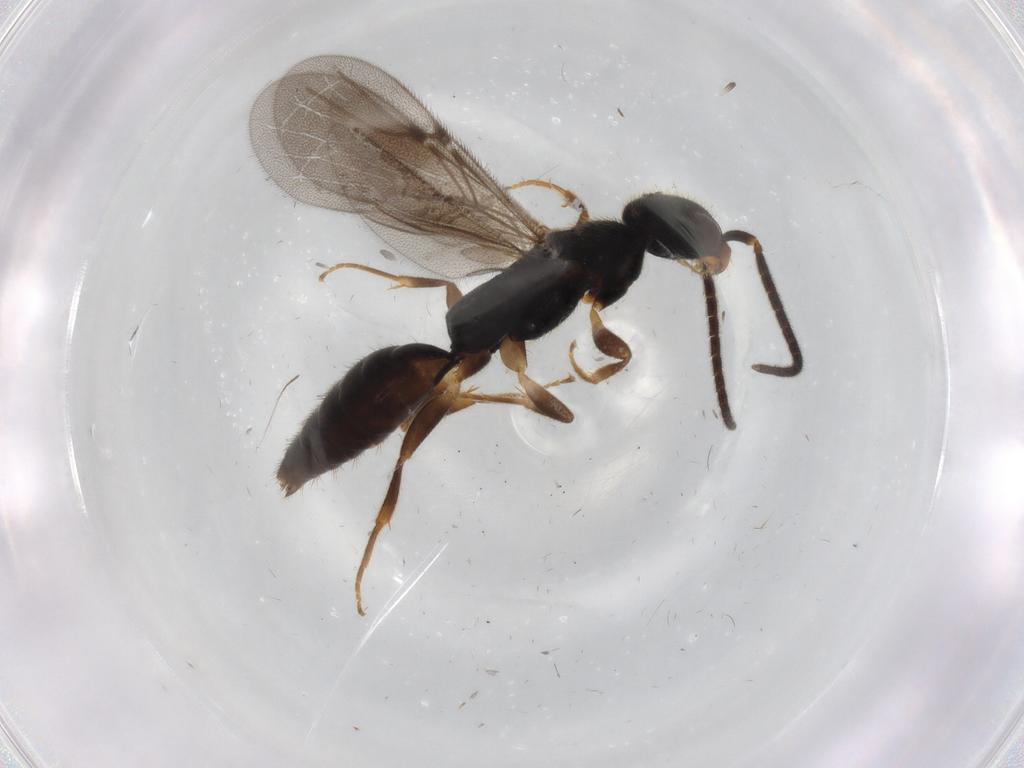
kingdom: Animalia
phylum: Arthropoda
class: Insecta
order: Hymenoptera
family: Bethylidae
